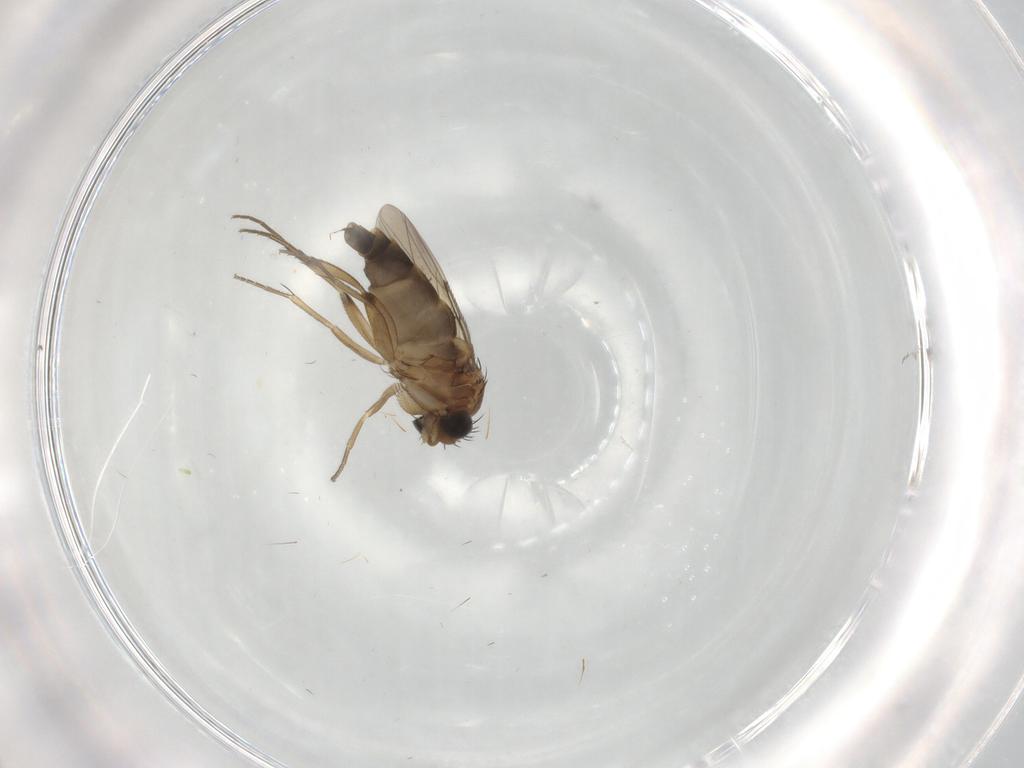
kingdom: Animalia
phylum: Arthropoda
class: Insecta
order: Diptera
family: Phoridae
